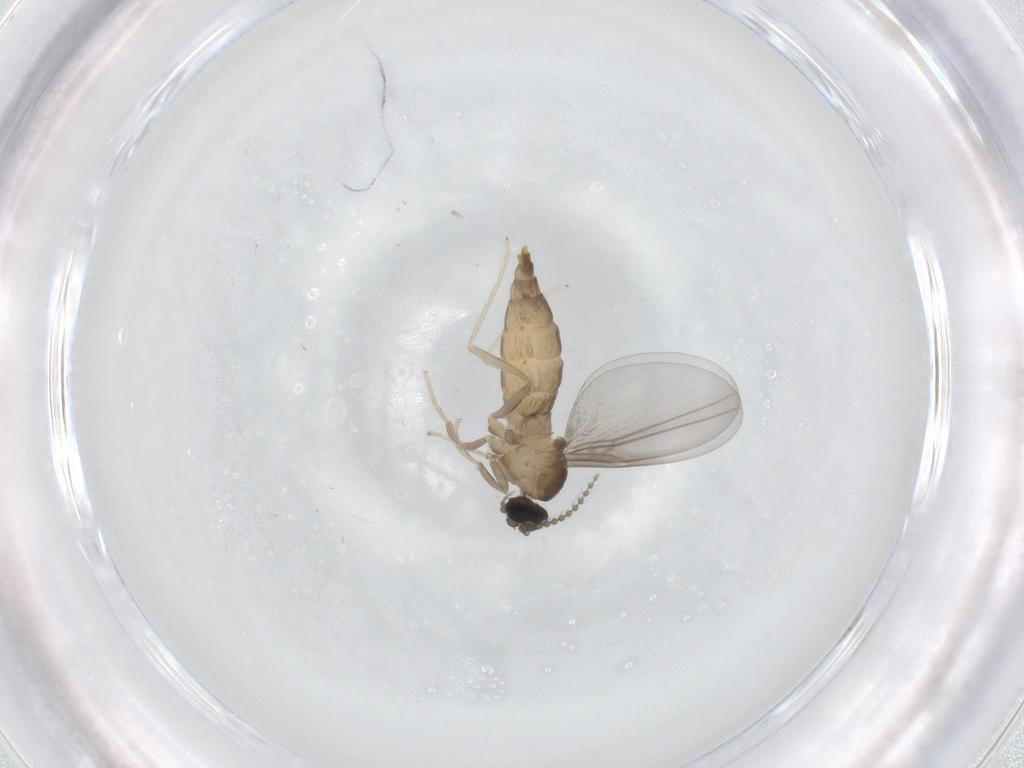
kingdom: Animalia
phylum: Arthropoda
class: Insecta
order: Diptera
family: Cecidomyiidae
